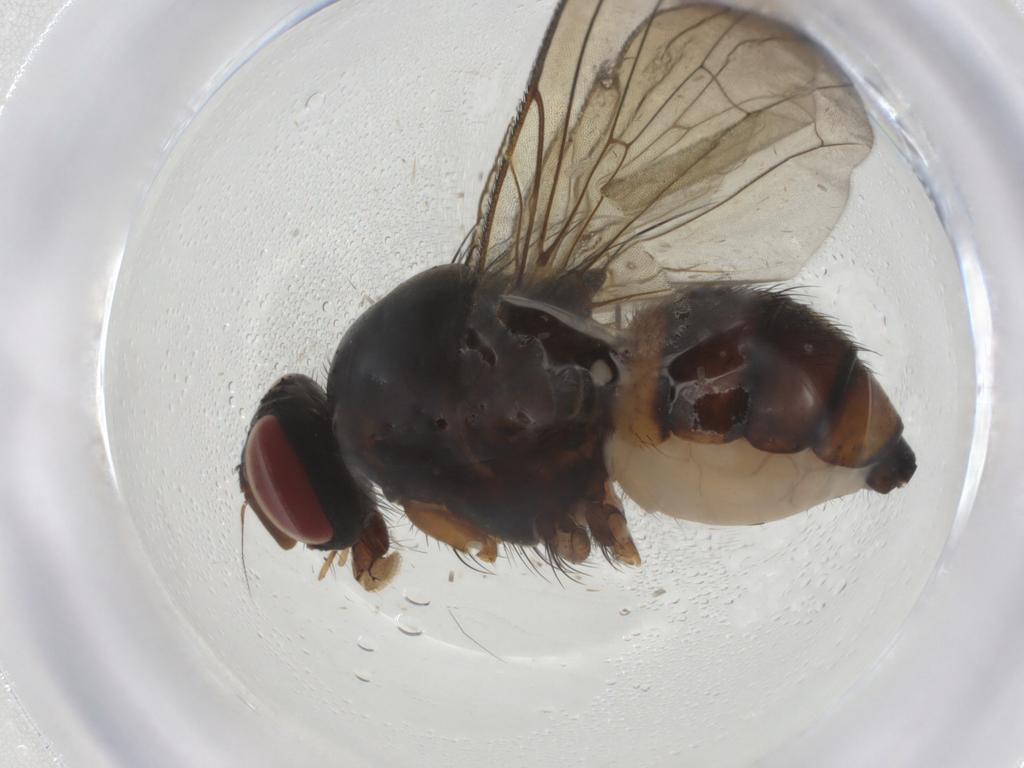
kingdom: Animalia
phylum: Arthropoda
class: Insecta
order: Diptera
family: Anthomyiidae
